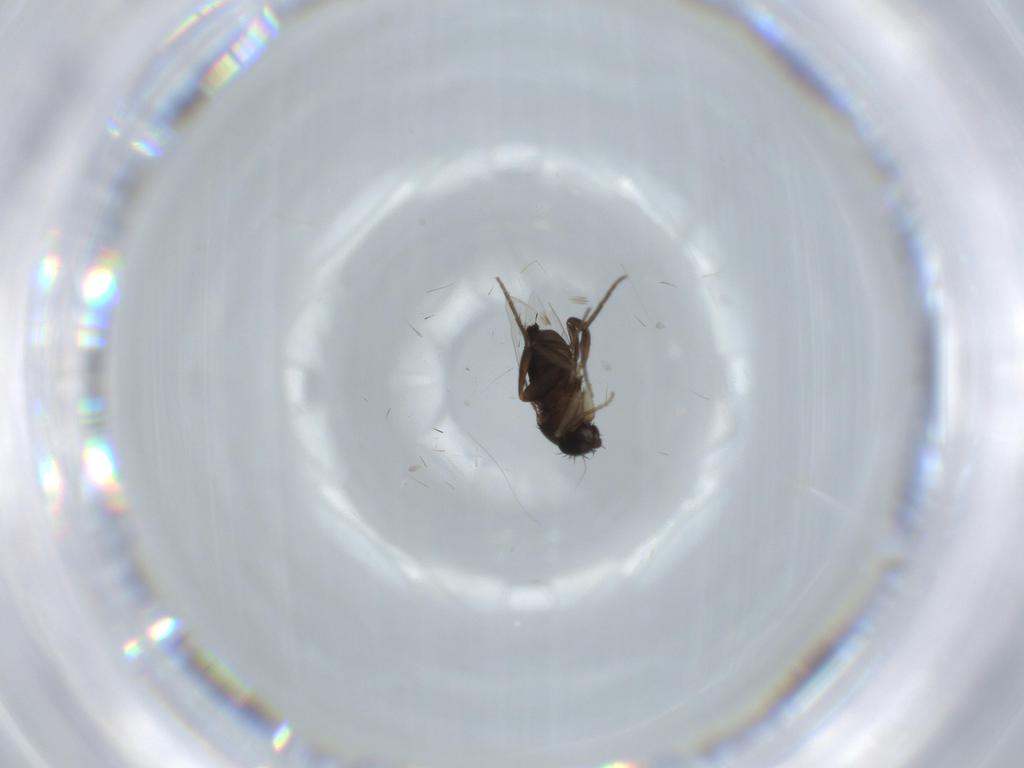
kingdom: Animalia
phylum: Arthropoda
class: Insecta
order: Diptera
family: Phoridae
